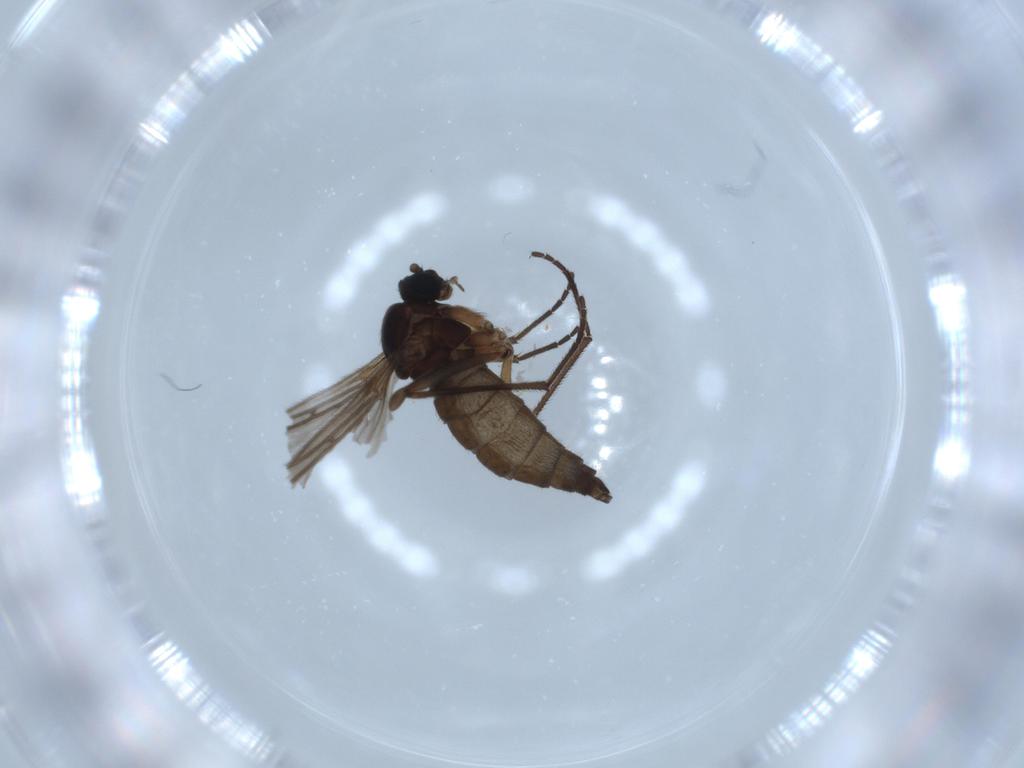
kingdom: Animalia
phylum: Arthropoda
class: Insecta
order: Diptera
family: Sciaridae
